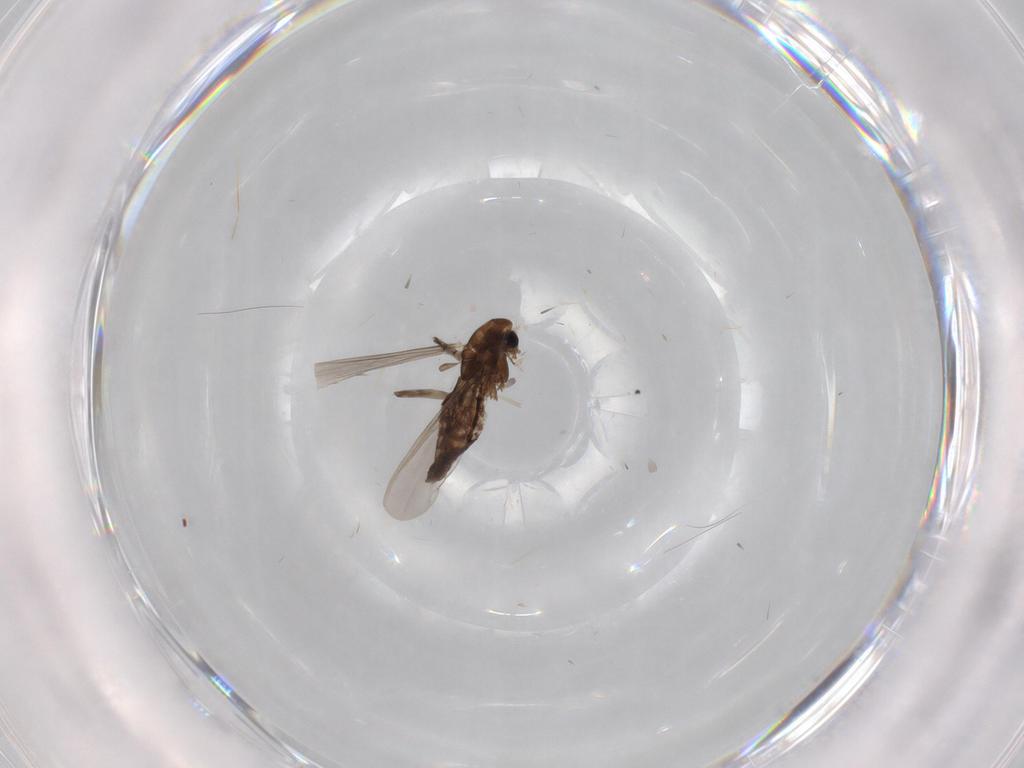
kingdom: Animalia
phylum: Arthropoda
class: Insecta
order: Diptera
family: Chironomidae
